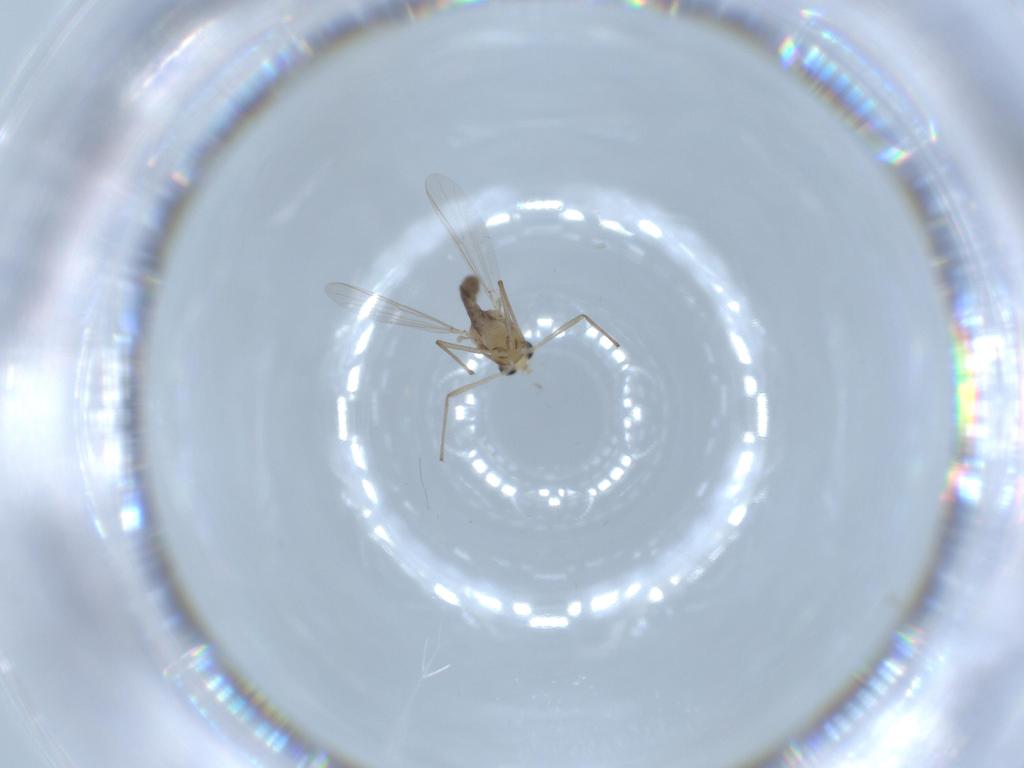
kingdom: Animalia
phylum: Arthropoda
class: Insecta
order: Diptera
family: Chironomidae
